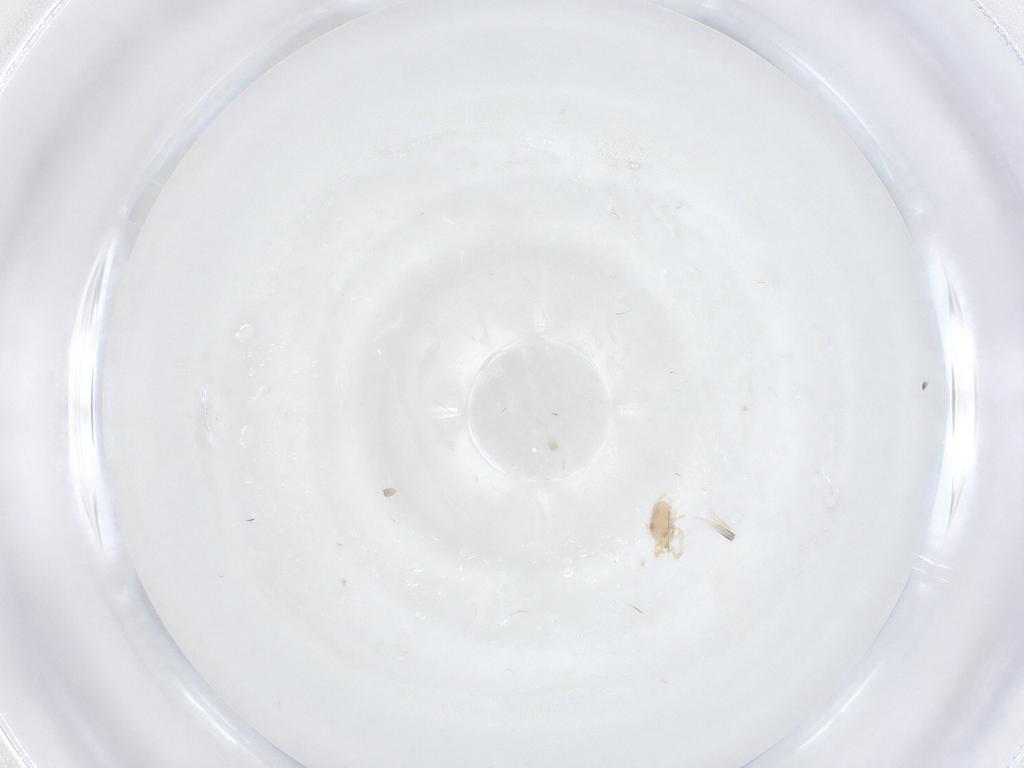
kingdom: Animalia
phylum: Arthropoda
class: Arachnida
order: Trombidiformes
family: Erythraeidae
